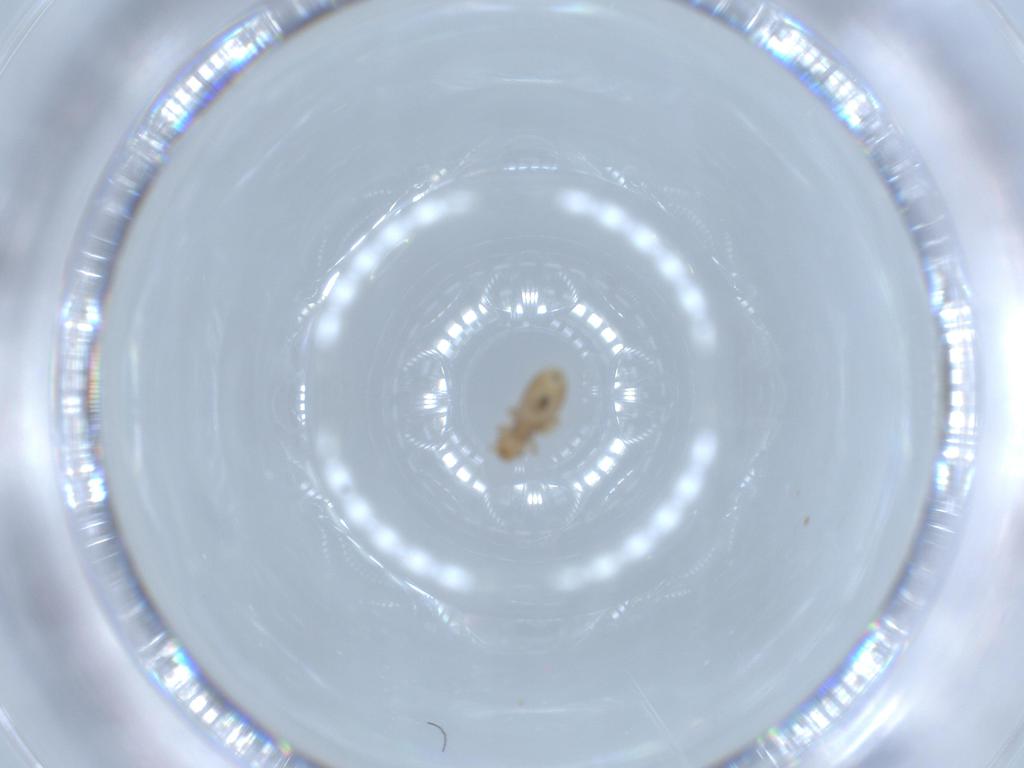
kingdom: Animalia
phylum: Arthropoda
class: Insecta
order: Psocodea
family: Liposcelididae
